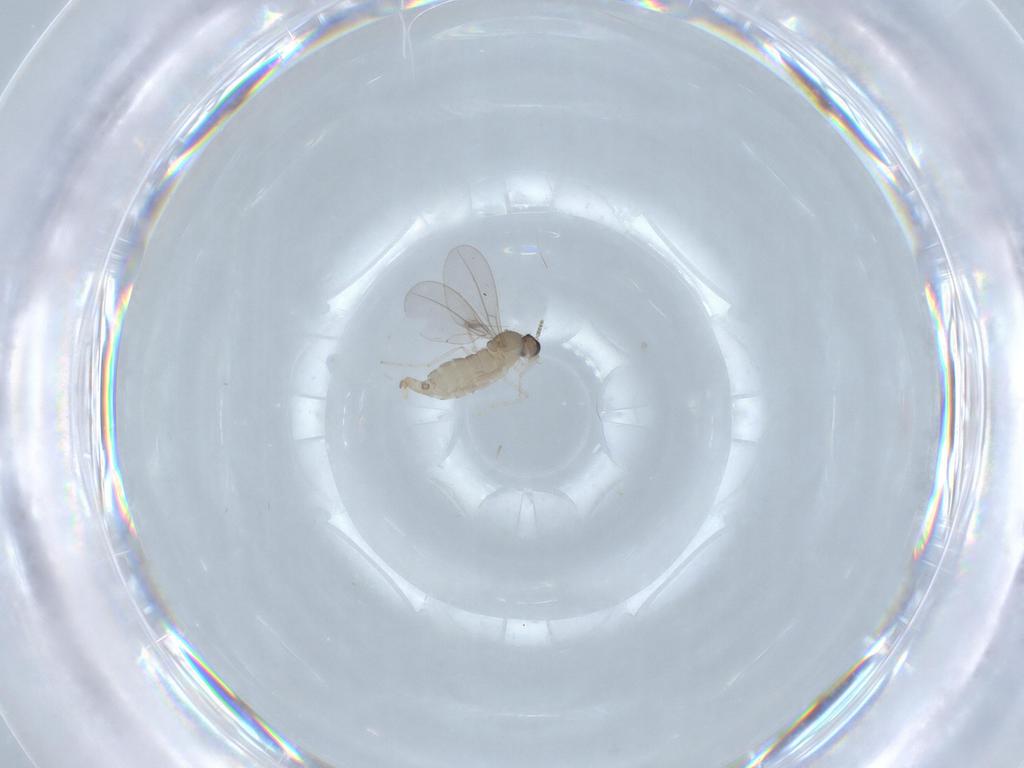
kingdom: Animalia
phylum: Arthropoda
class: Insecta
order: Diptera
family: Cecidomyiidae
